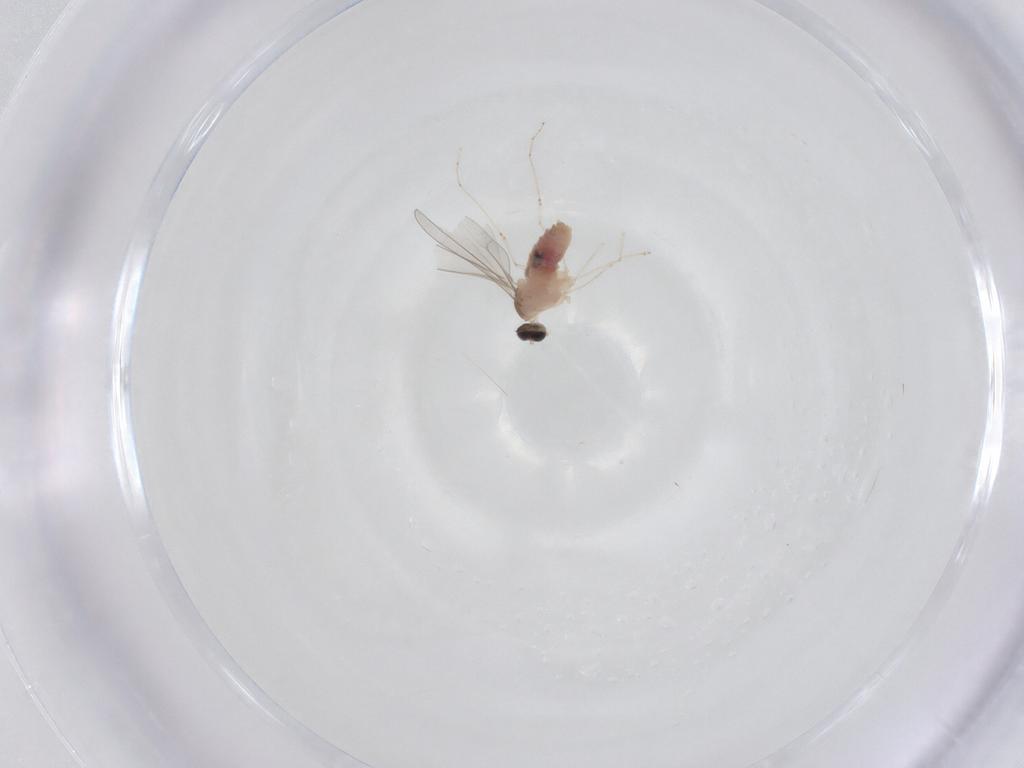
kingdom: Animalia
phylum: Arthropoda
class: Insecta
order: Diptera
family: Cecidomyiidae
